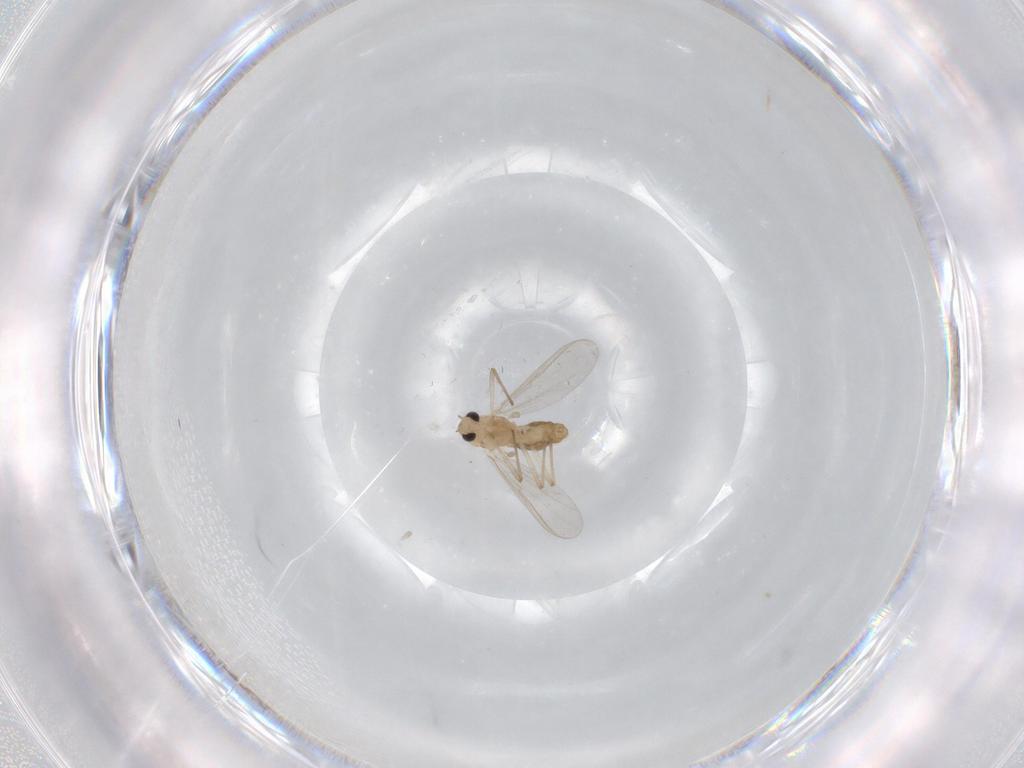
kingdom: Animalia
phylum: Arthropoda
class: Insecta
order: Diptera
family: Chironomidae
